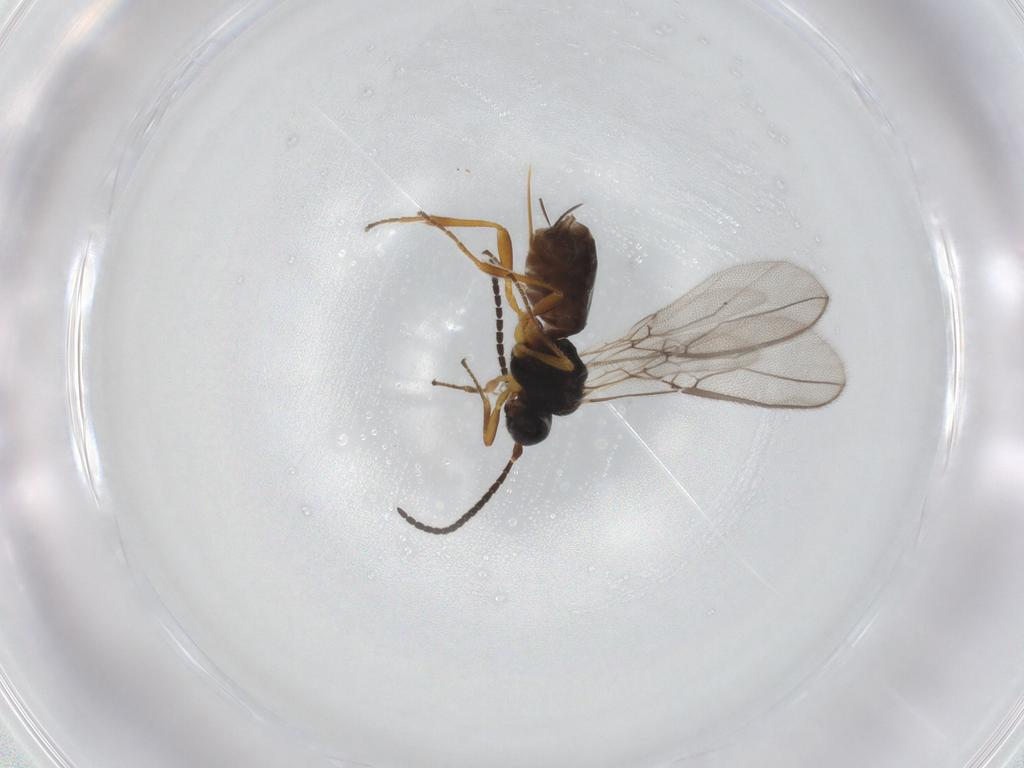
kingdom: Animalia
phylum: Arthropoda
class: Insecta
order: Hymenoptera
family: Braconidae
